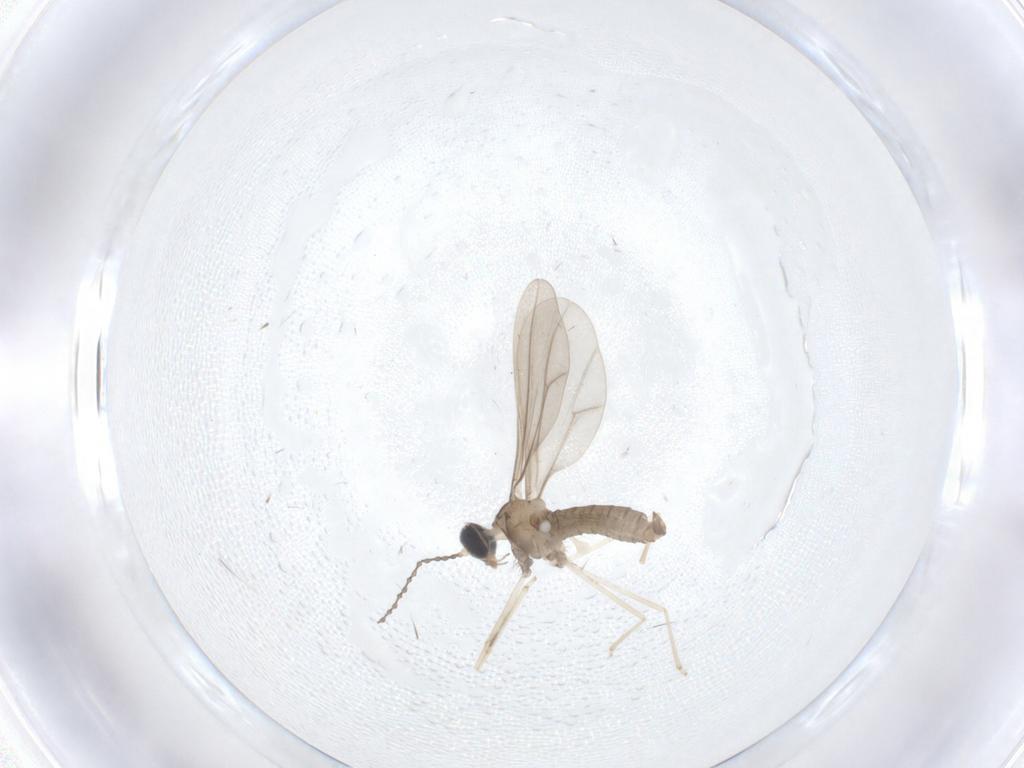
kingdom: Animalia
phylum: Arthropoda
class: Insecta
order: Diptera
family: Cecidomyiidae
